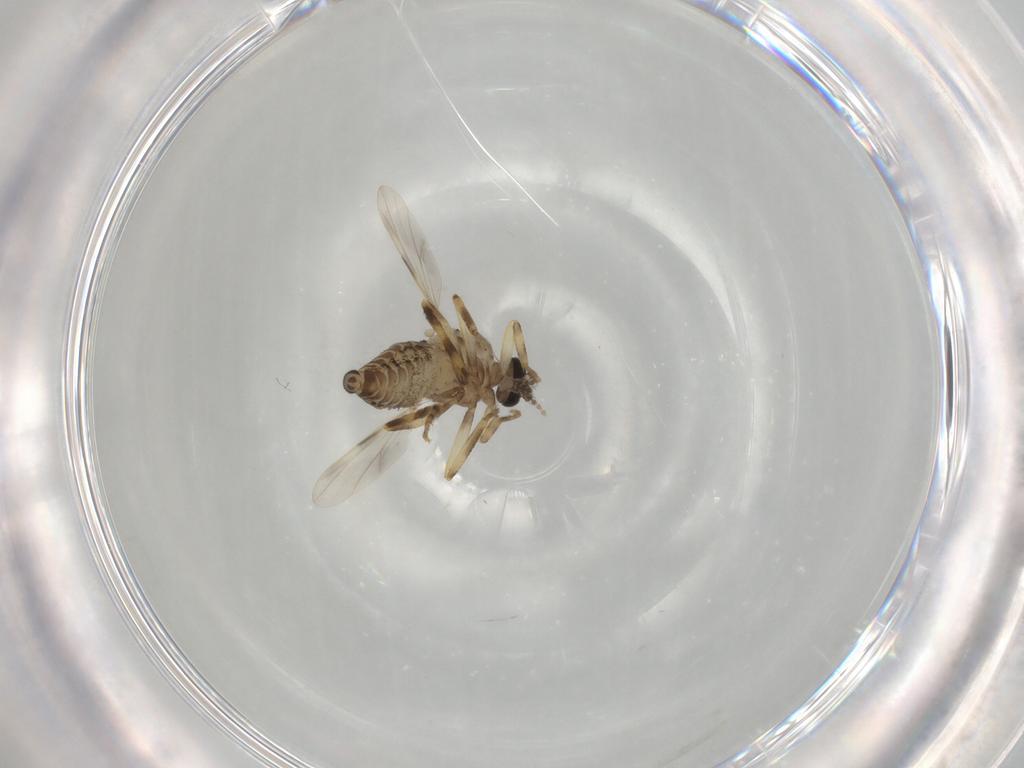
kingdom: Animalia
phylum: Arthropoda
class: Insecta
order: Diptera
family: Ceratopogonidae
